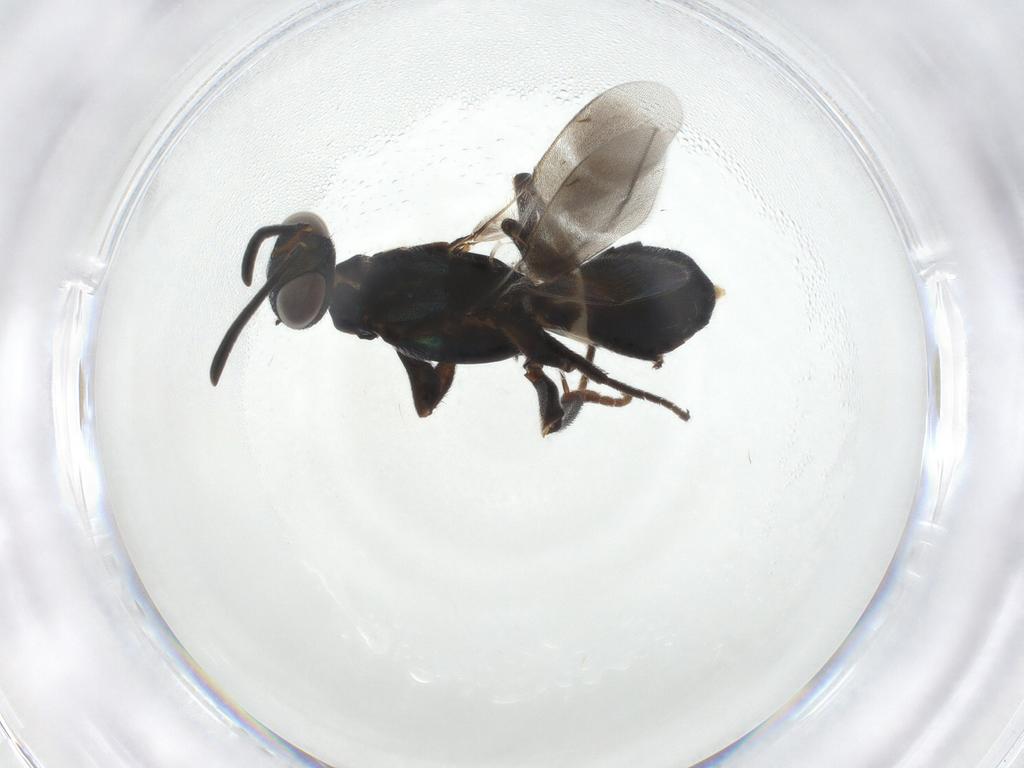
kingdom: Animalia
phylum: Arthropoda
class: Insecta
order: Hymenoptera
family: Eupelmidae
